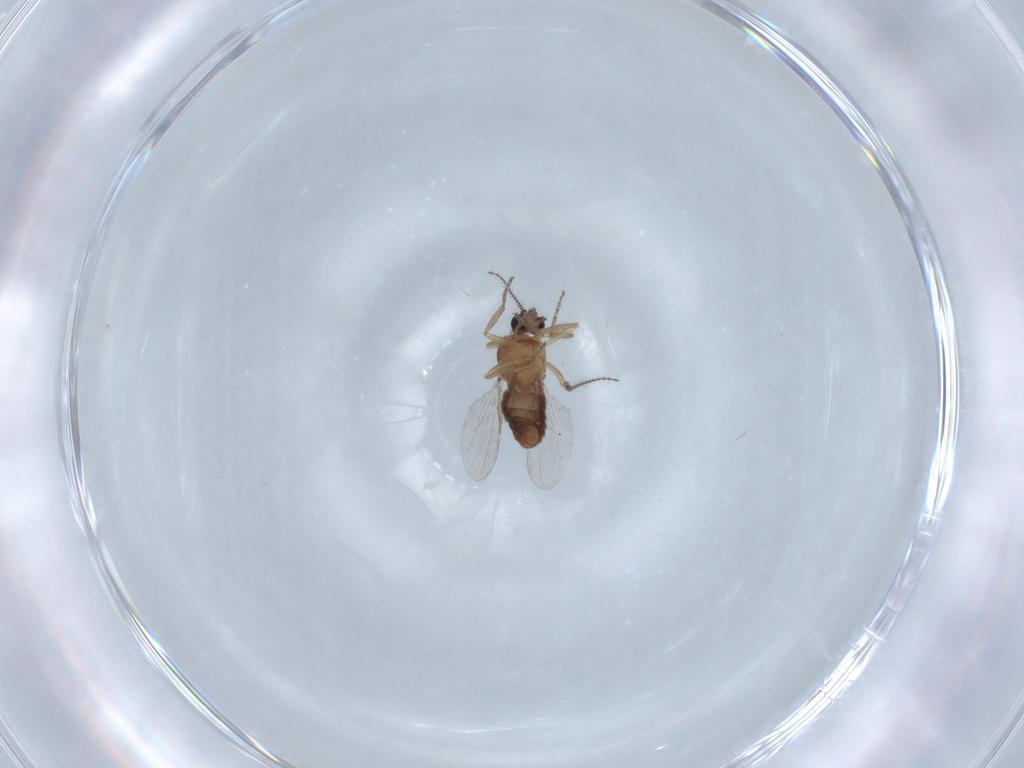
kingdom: Animalia
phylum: Arthropoda
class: Insecta
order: Diptera
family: Ceratopogonidae
